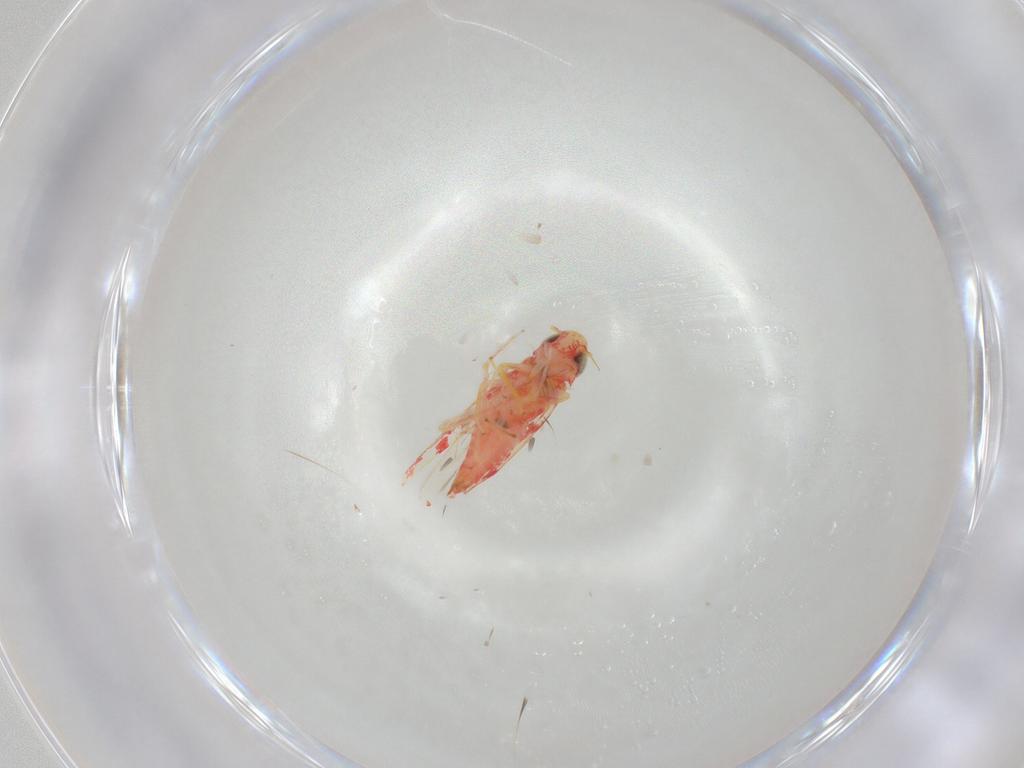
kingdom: Animalia
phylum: Arthropoda
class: Insecta
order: Hemiptera
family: Cicadellidae
